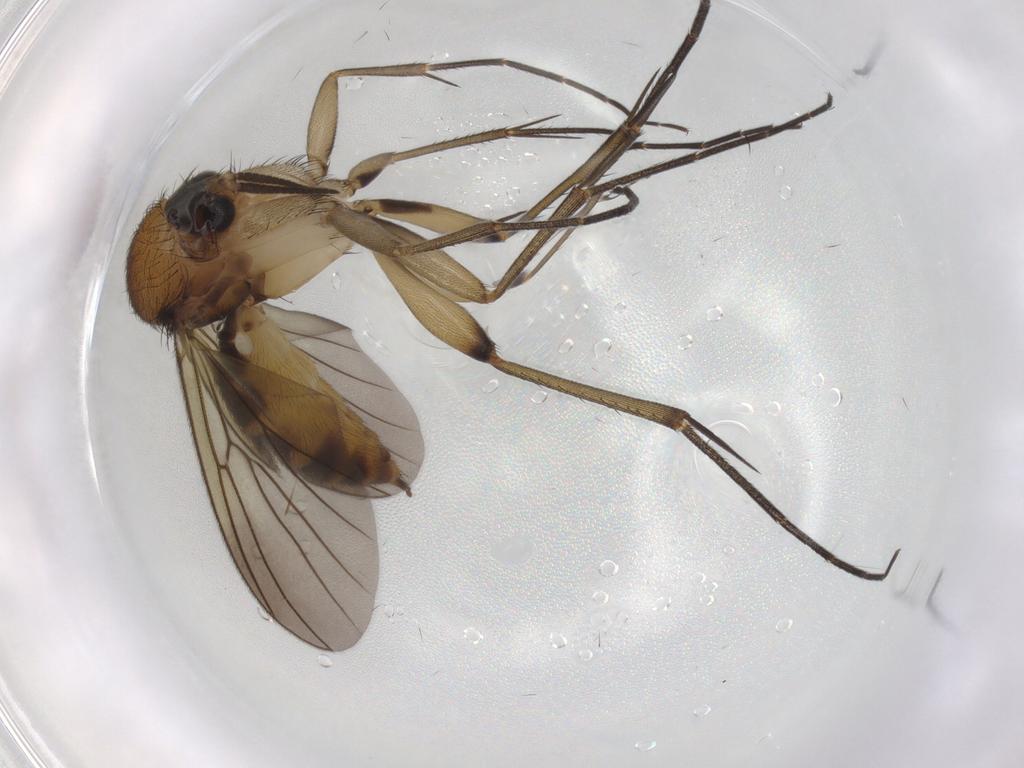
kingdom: Animalia
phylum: Arthropoda
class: Insecta
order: Diptera
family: Mycetophilidae
